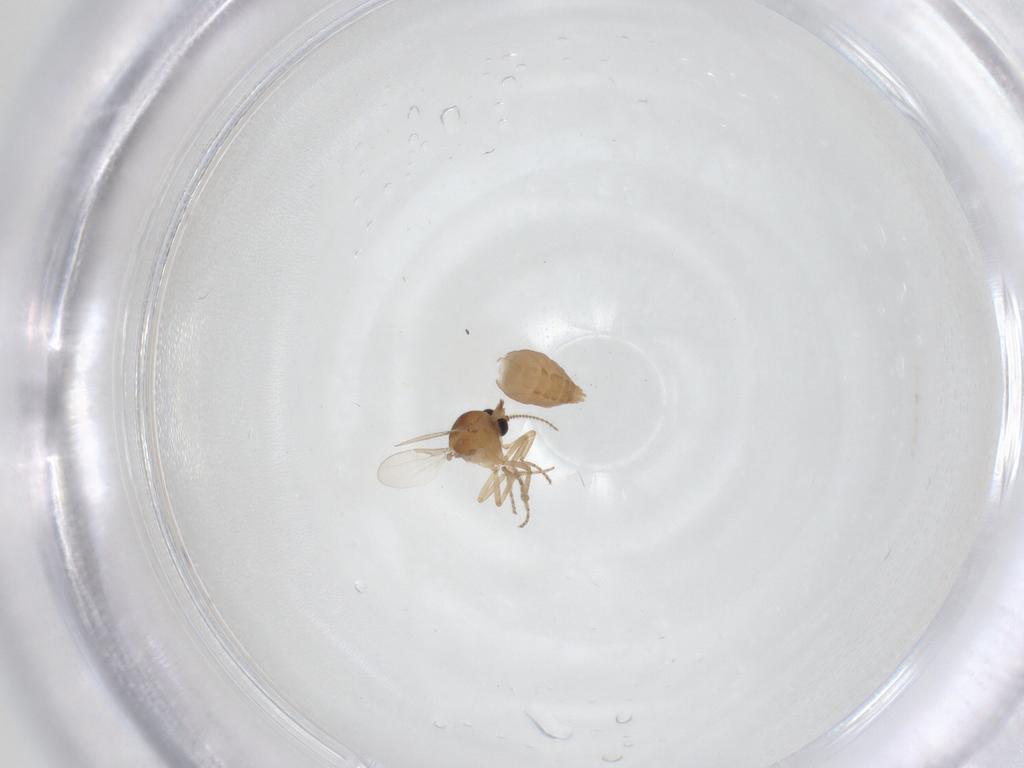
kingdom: Animalia
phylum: Arthropoda
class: Insecta
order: Diptera
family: Ceratopogonidae
